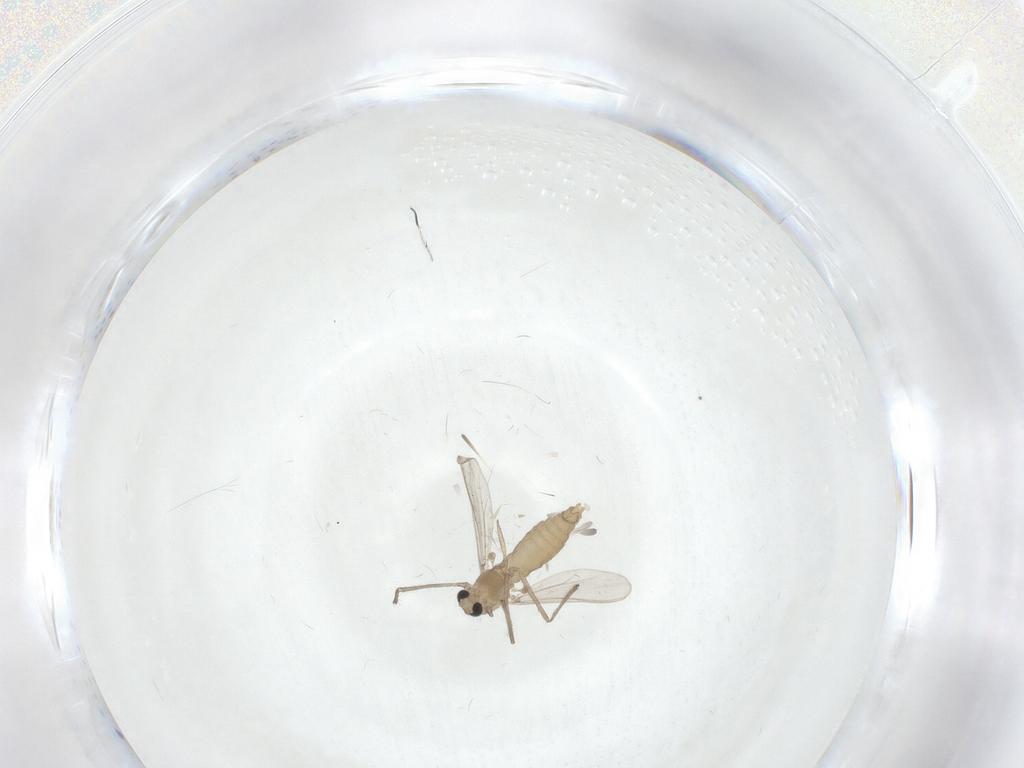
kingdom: Animalia
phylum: Arthropoda
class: Insecta
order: Diptera
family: Chironomidae
